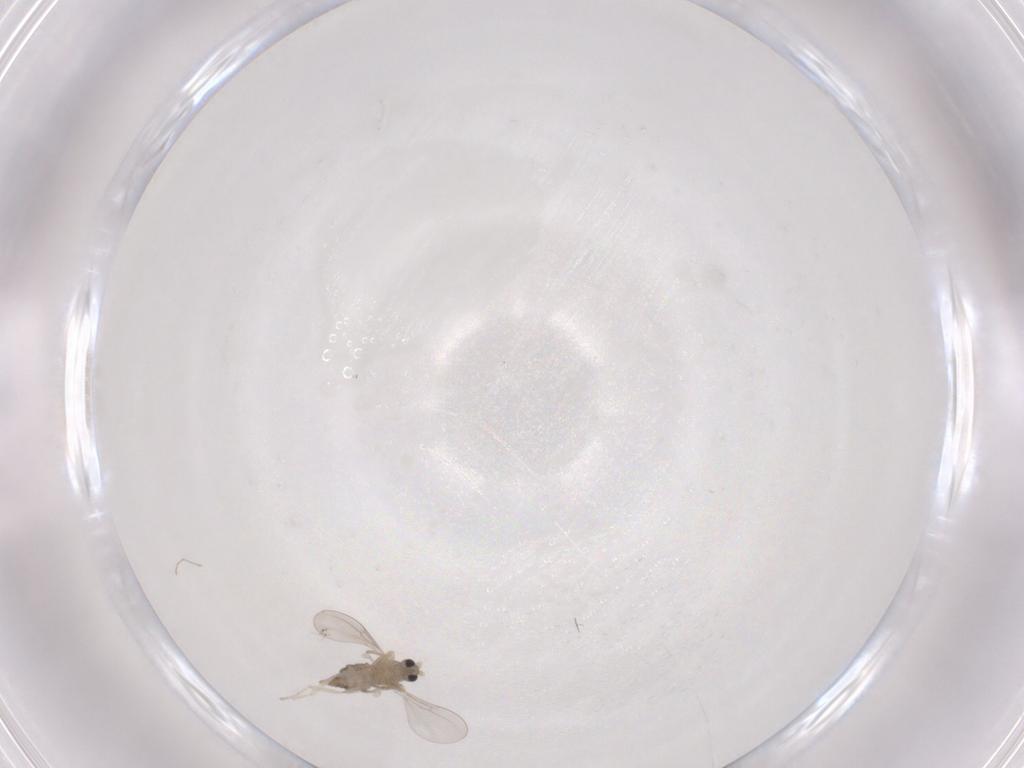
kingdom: Animalia
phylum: Arthropoda
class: Insecta
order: Diptera
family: Cecidomyiidae
